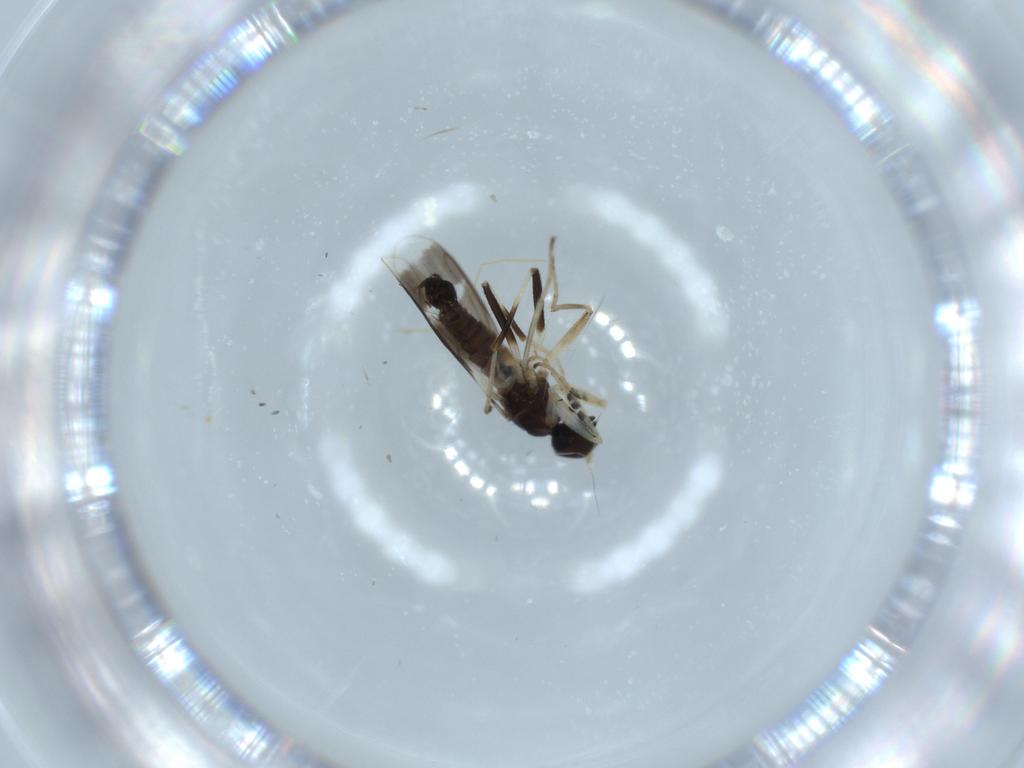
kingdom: Animalia
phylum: Arthropoda
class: Insecta
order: Diptera
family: Hybotidae
